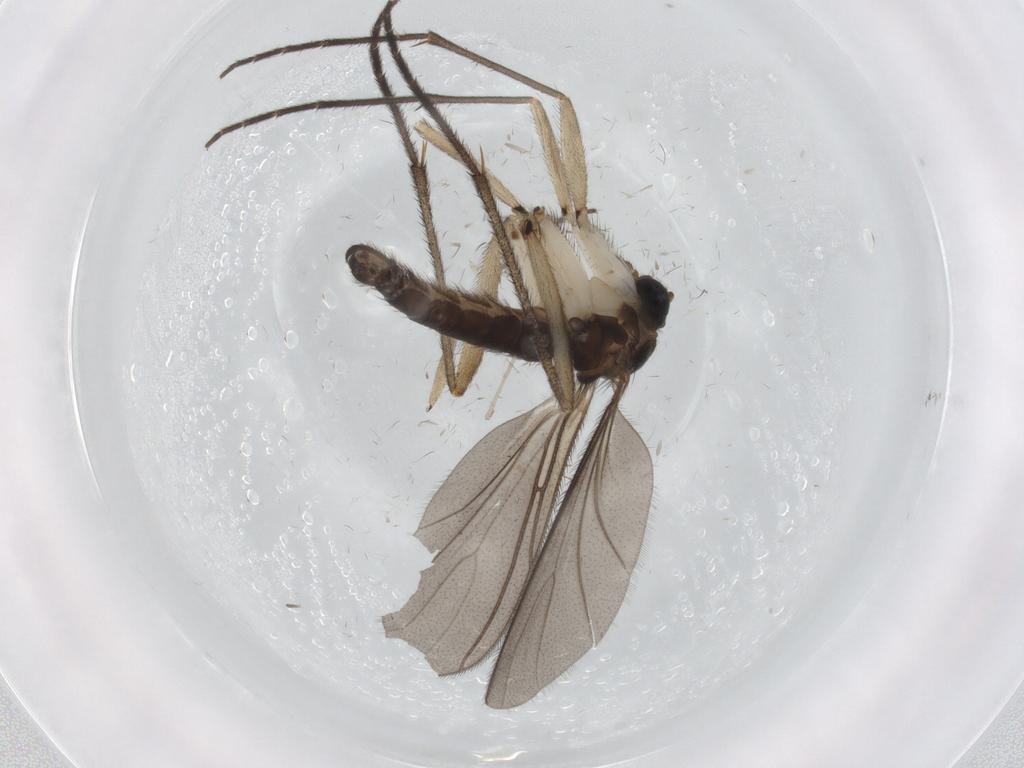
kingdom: Animalia
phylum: Arthropoda
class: Insecta
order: Diptera
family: Sciaridae
